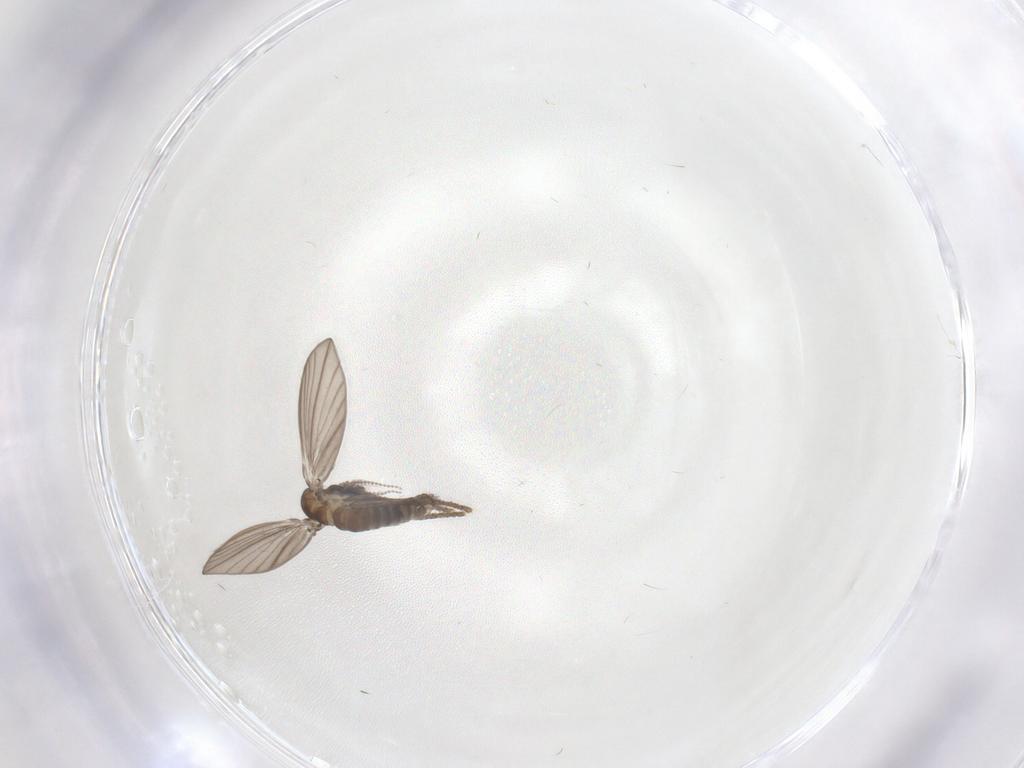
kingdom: Animalia
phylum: Arthropoda
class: Insecta
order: Diptera
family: Psychodidae
